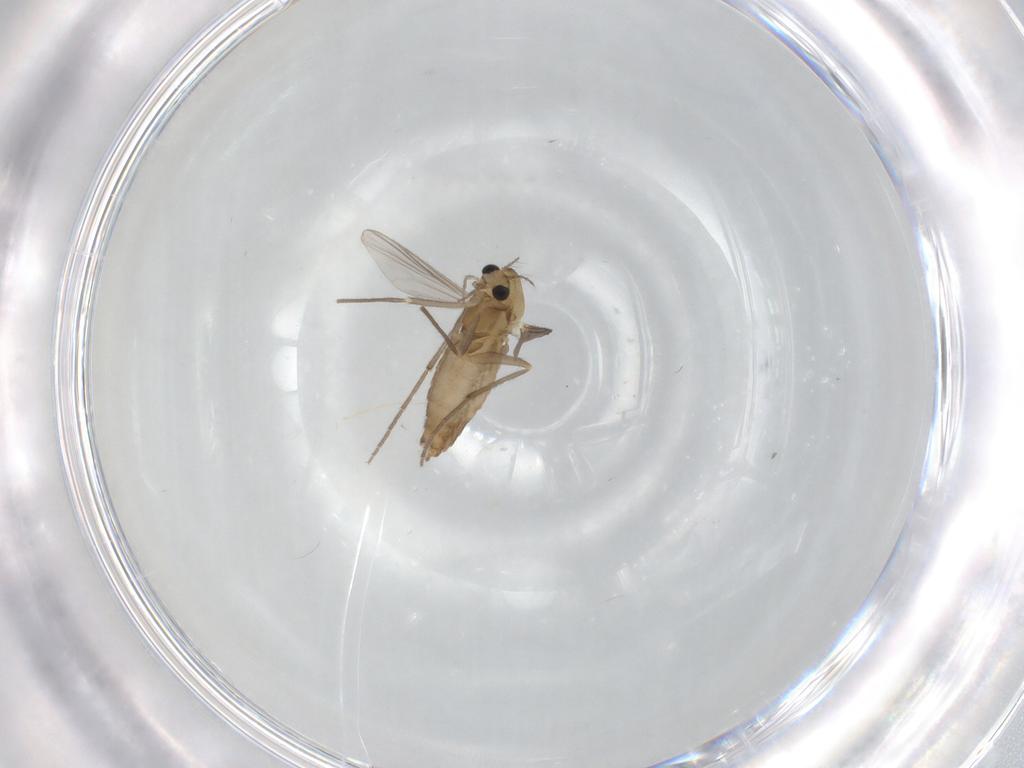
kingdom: Animalia
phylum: Arthropoda
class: Insecta
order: Diptera
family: Chironomidae
